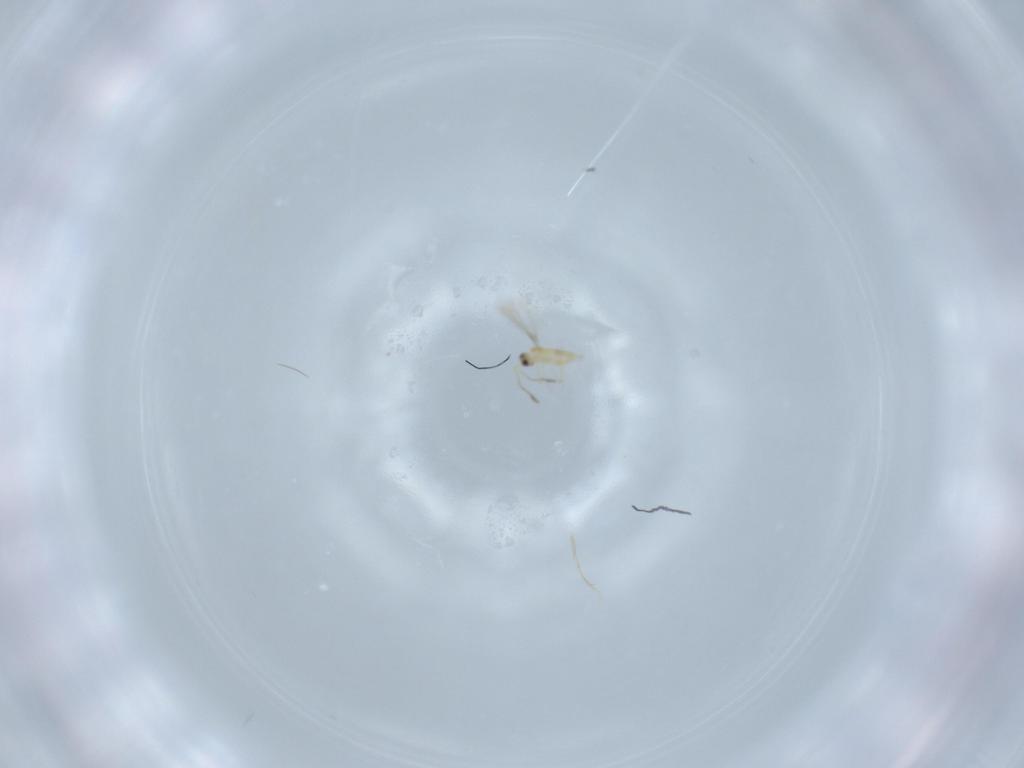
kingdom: Animalia
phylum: Arthropoda
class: Insecta
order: Hymenoptera
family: Mymaridae
